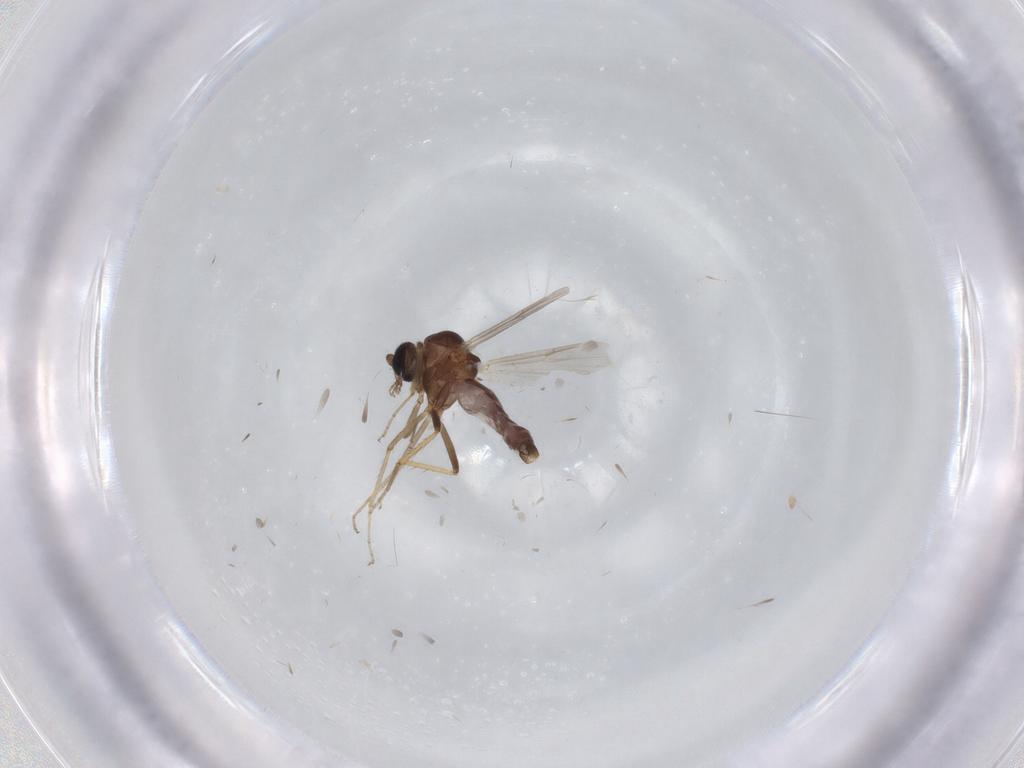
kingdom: Animalia
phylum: Arthropoda
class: Insecta
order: Diptera
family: Ceratopogonidae
